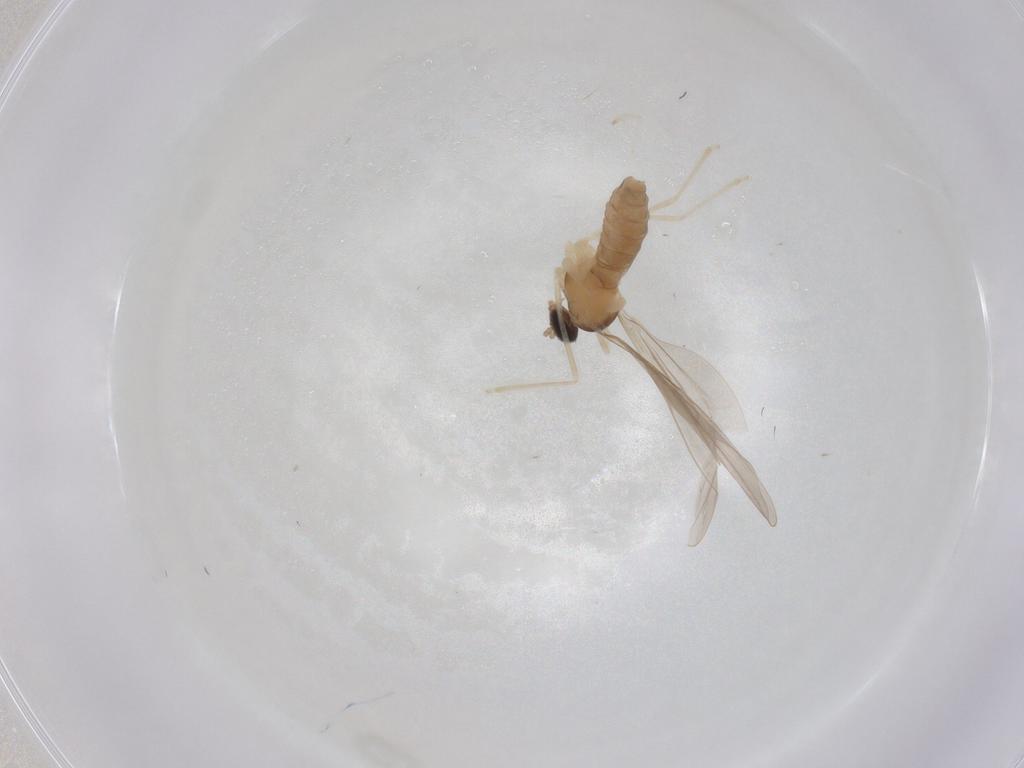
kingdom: Animalia
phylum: Arthropoda
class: Insecta
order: Diptera
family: Cecidomyiidae
